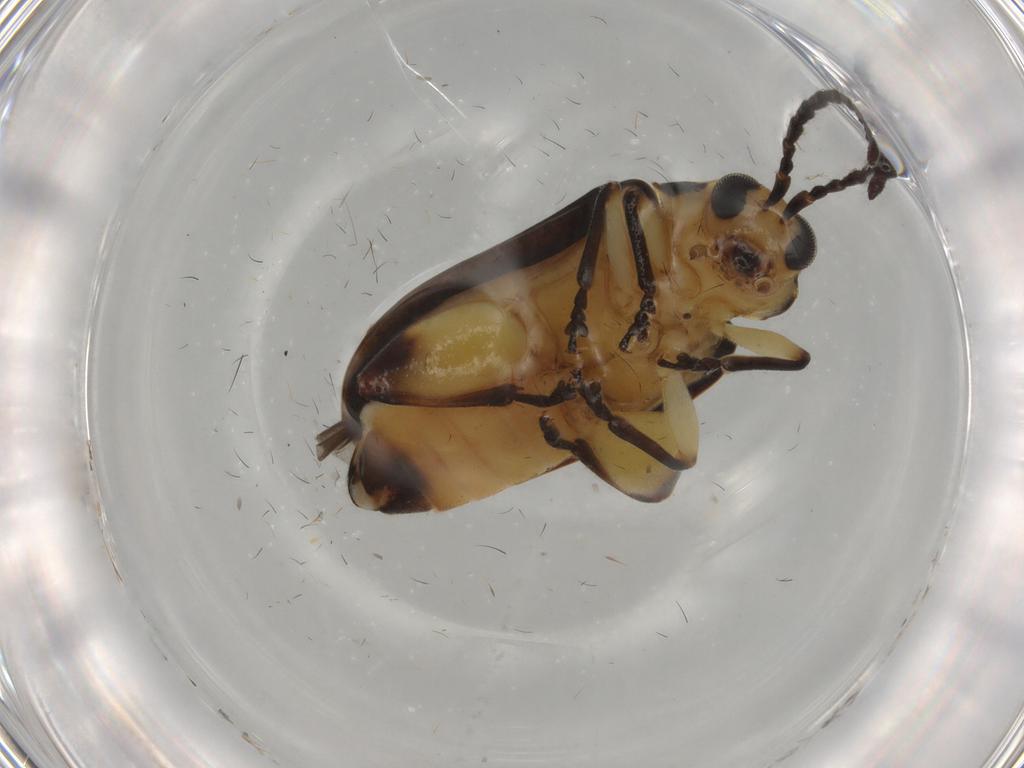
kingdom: Animalia
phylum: Arthropoda
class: Insecta
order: Coleoptera
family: Chrysomelidae
